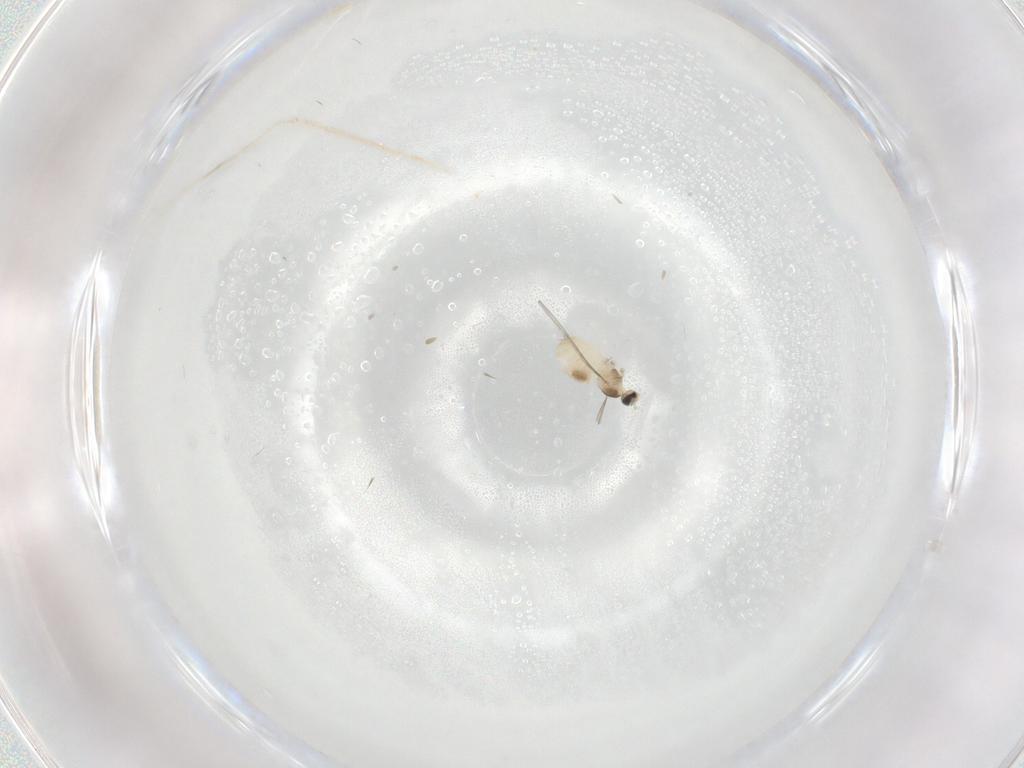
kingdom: Animalia
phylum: Arthropoda
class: Insecta
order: Diptera
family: Cecidomyiidae
